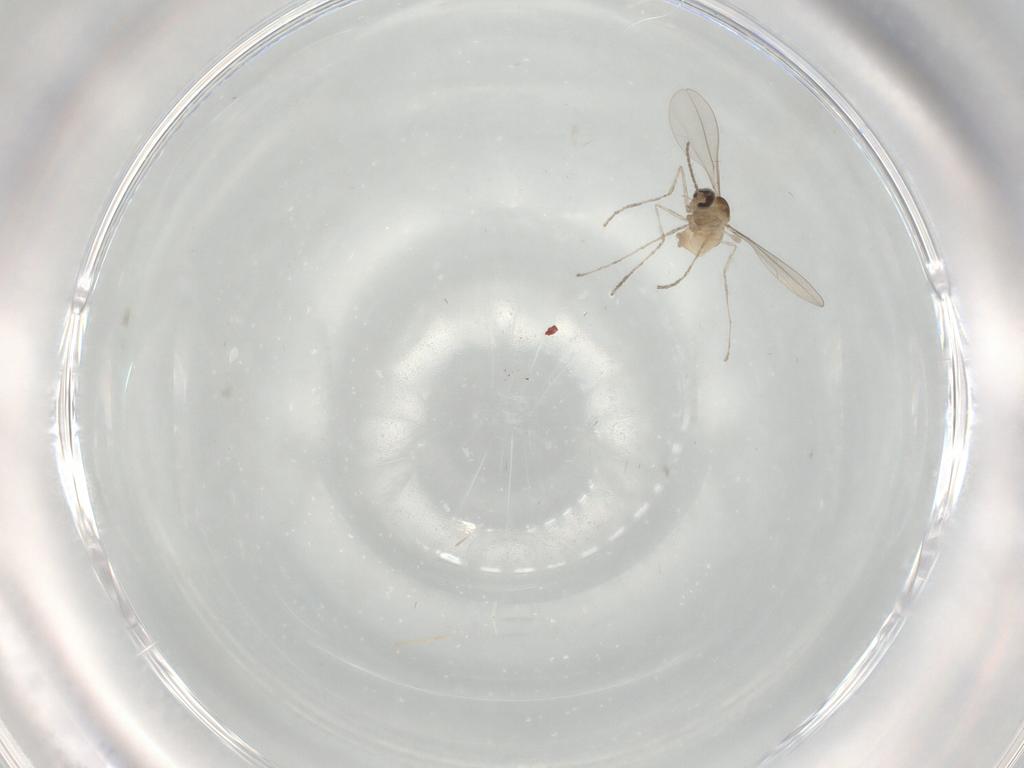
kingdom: Animalia
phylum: Arthropoda
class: Insecta
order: Diptera
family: Cecidomyiidae
